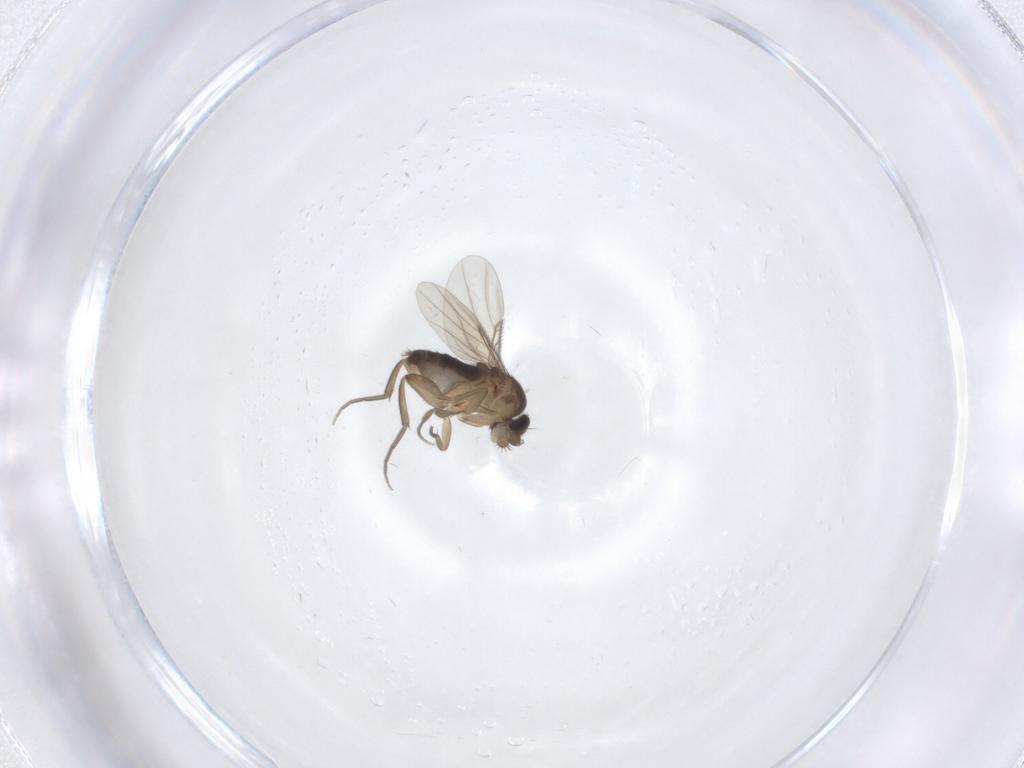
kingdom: Animalia
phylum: Arthropoda
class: Insecta
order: Diptera
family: Phoridae
